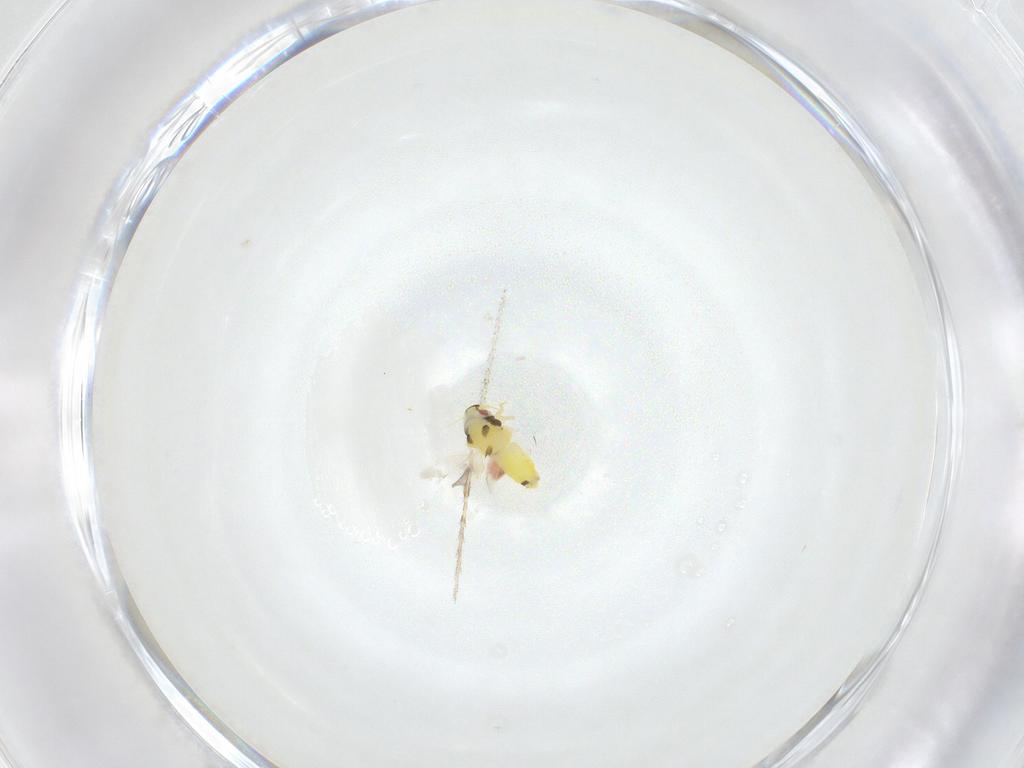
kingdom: Animalia
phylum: Arthropoda
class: Insecta
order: Hemiptera
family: Aleyrodidae
